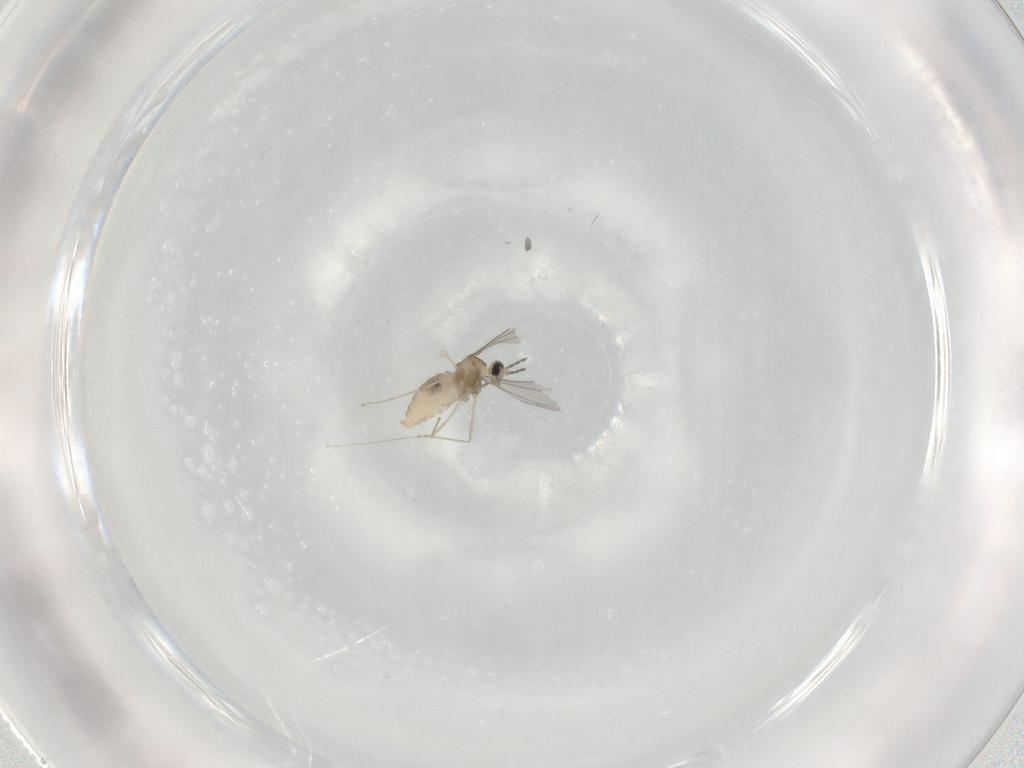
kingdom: Animalia
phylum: Arthropoda
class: Insecta
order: Diptera
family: Cecidomyiidae
